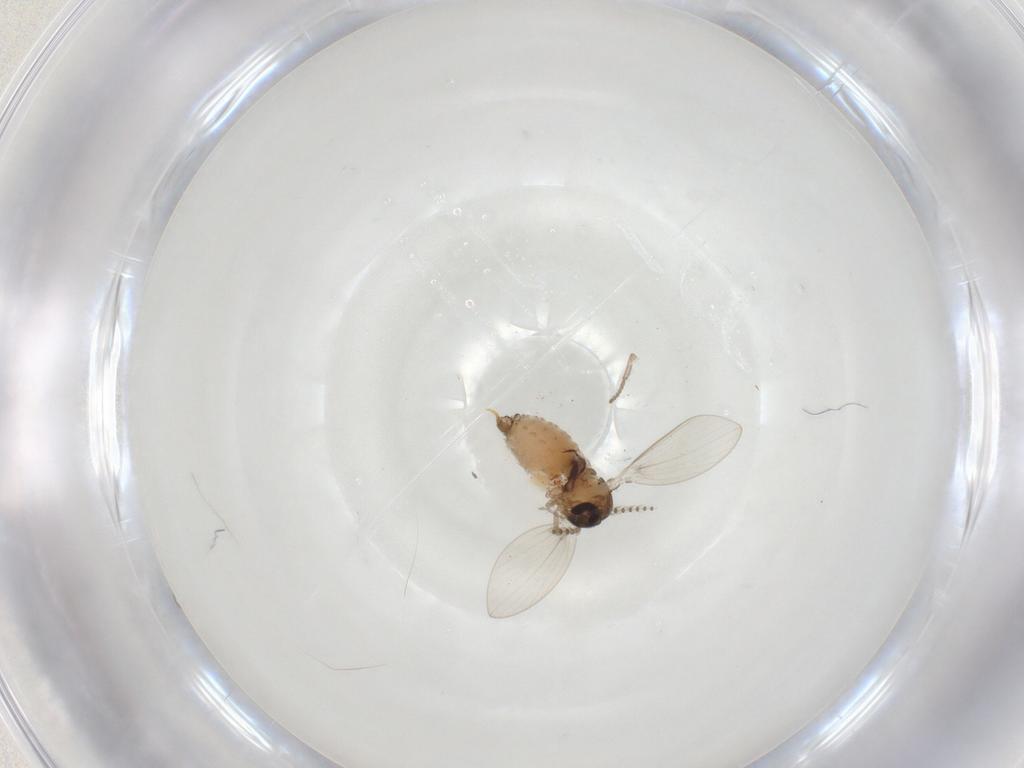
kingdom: Animalia
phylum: Arthropoda
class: Insecta
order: Diptera
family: Psychodidae
